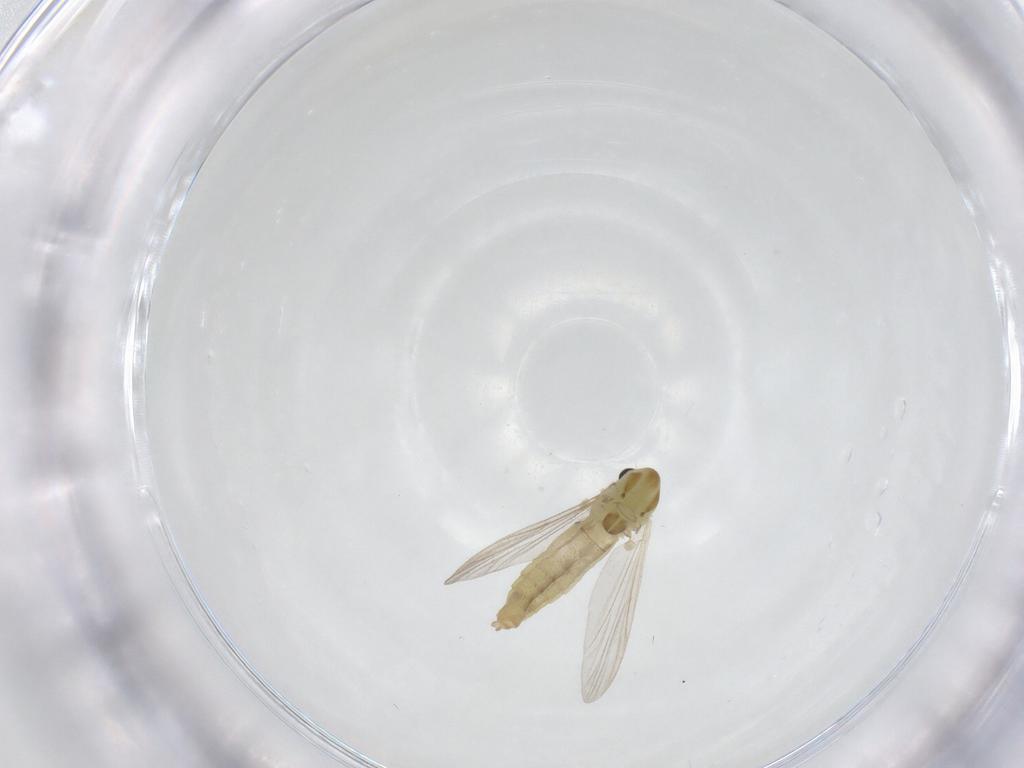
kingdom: Animalia
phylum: Arthropoda
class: Insecta
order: Diptera
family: Chironomidae
